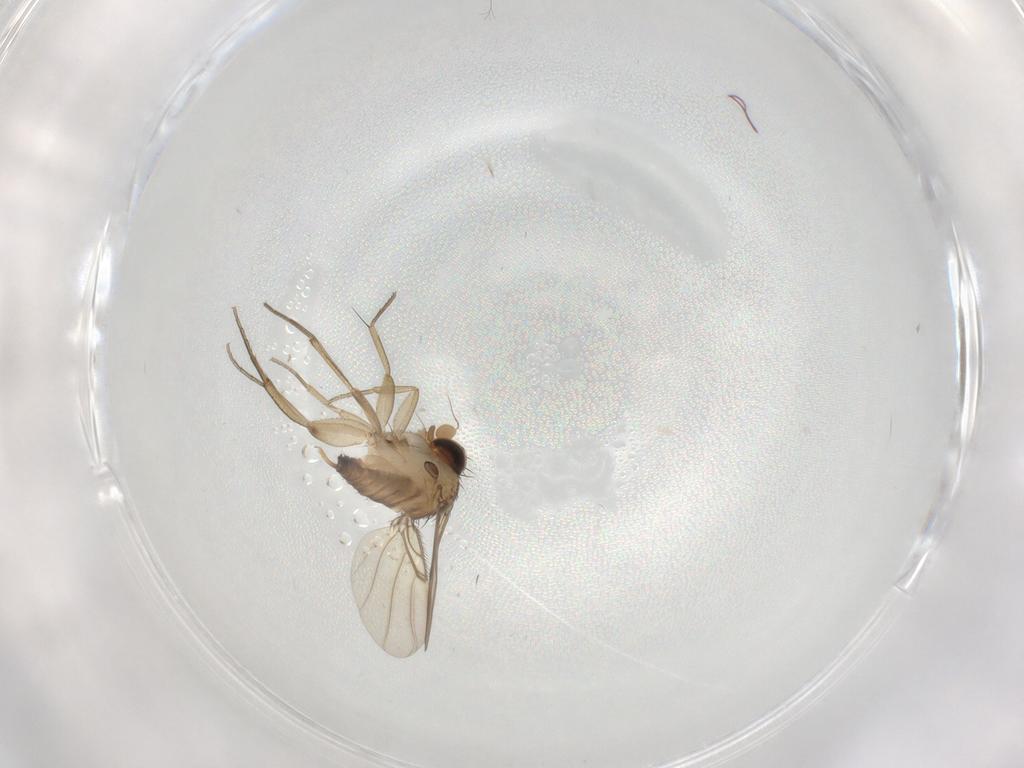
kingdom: Animalia
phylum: Arthropoda
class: Insecta
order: Diptera
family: Phoridae
